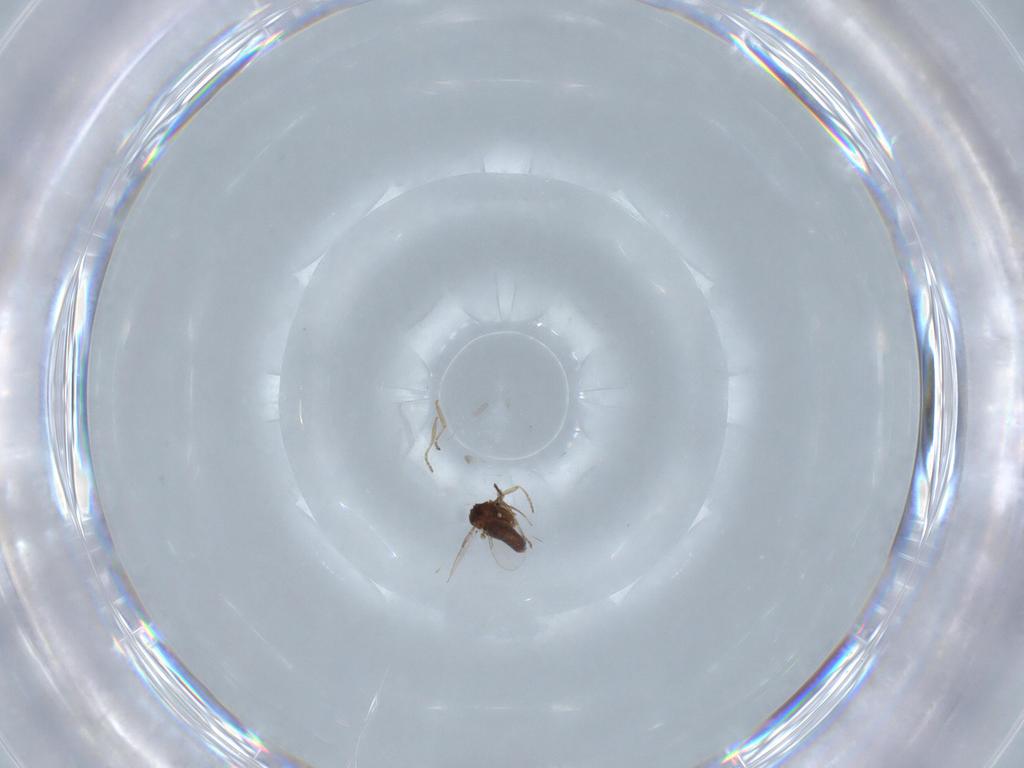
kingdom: Animalia
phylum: Arthropoda
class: Insecta
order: Diptera
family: Ceratopogonidae
